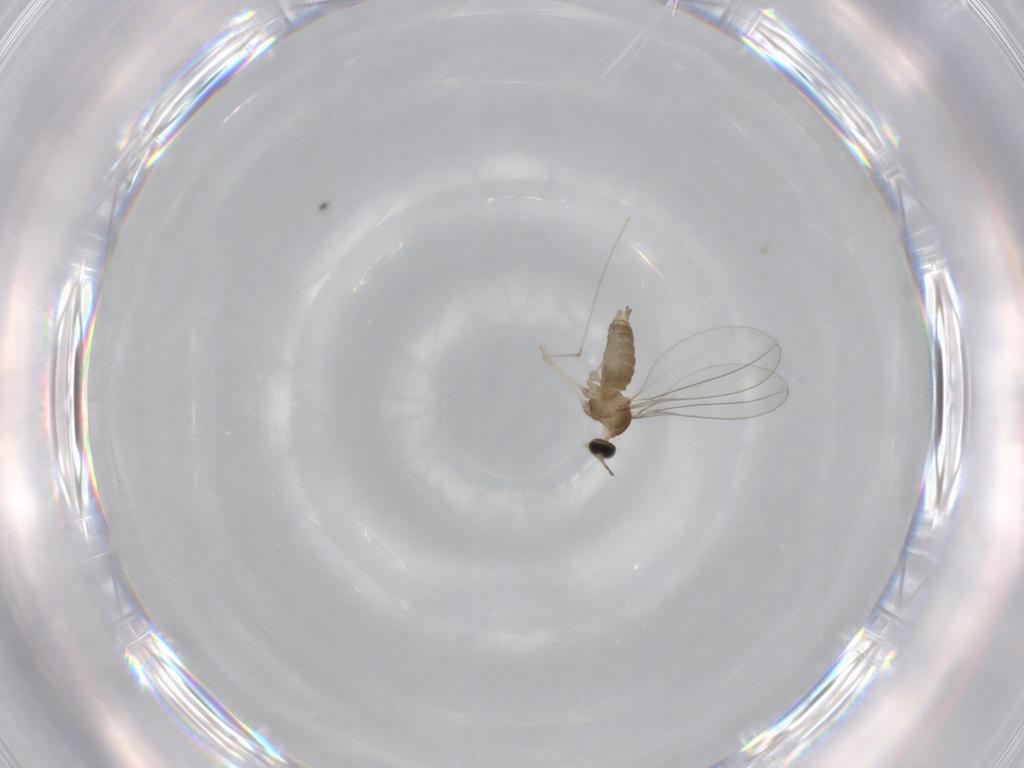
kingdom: Animalia
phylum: Arthropoda
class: Insecta
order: Diptera
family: Cecidomyiidae
